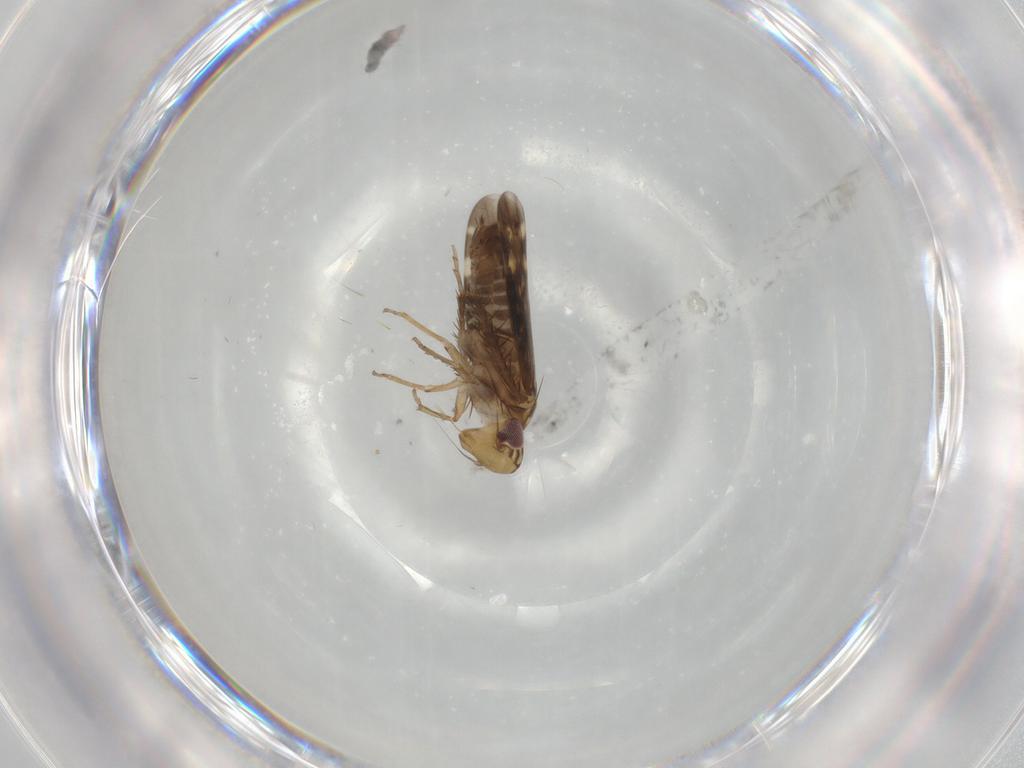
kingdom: Animalia
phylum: Arthropoda
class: Insecta
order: Hemiptera
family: Cicadellidae
